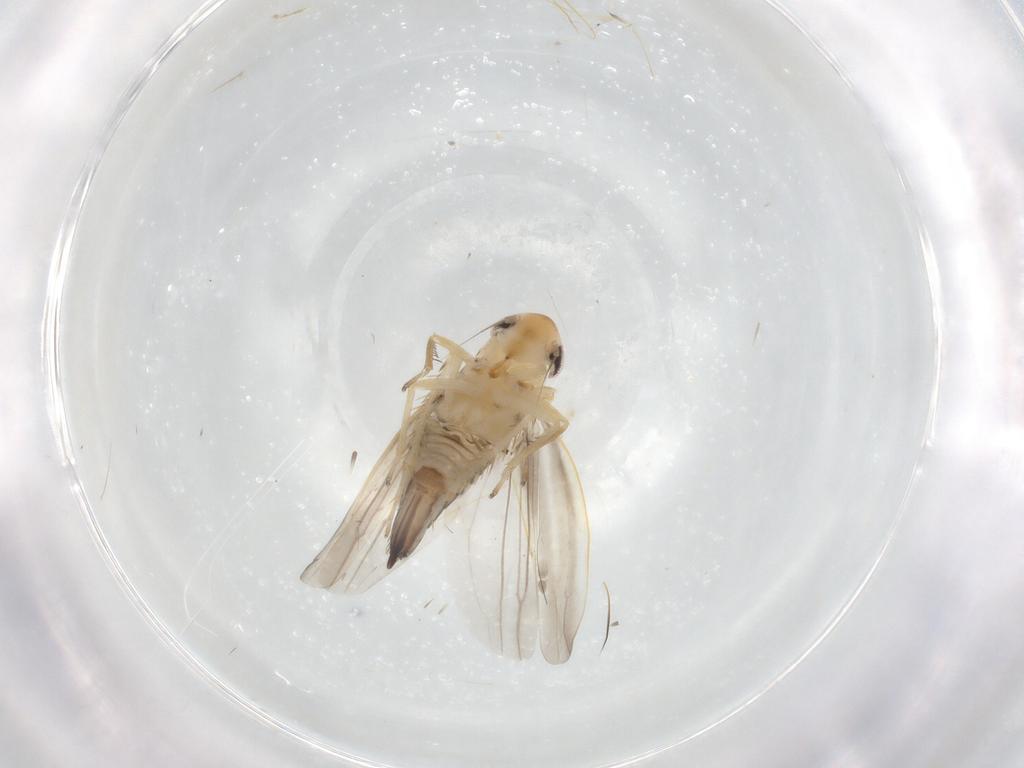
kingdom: Animalia
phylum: Arthropoda
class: Insecta
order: Hemiptera
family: Cicadellidae
